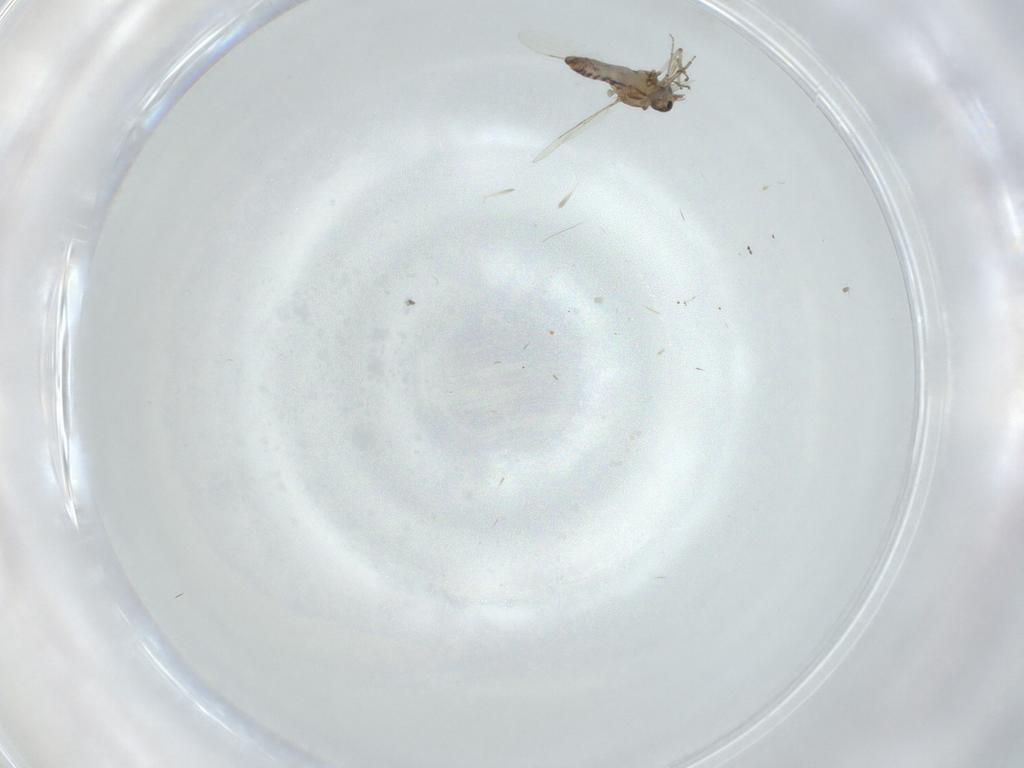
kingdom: Animalia
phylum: Arthropoda
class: Insecta
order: Diptera
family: Ceratopogonidae
